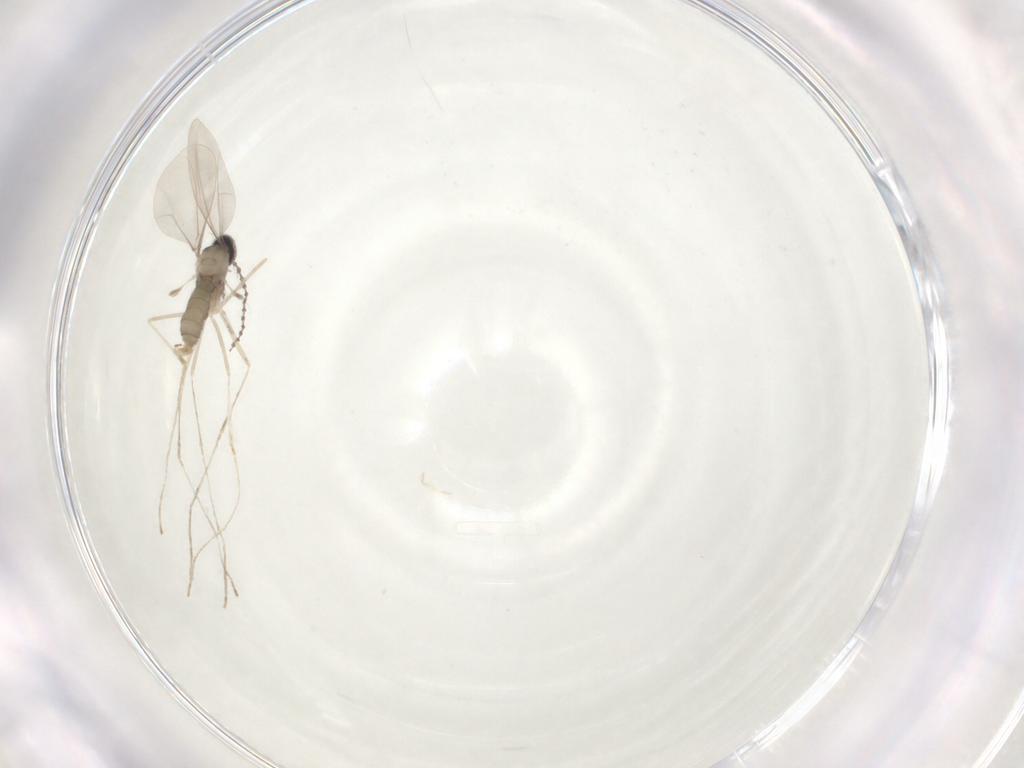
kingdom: Animalia
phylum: Arthropoda
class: Insecta
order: Diptera
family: Cecidomyiidae
